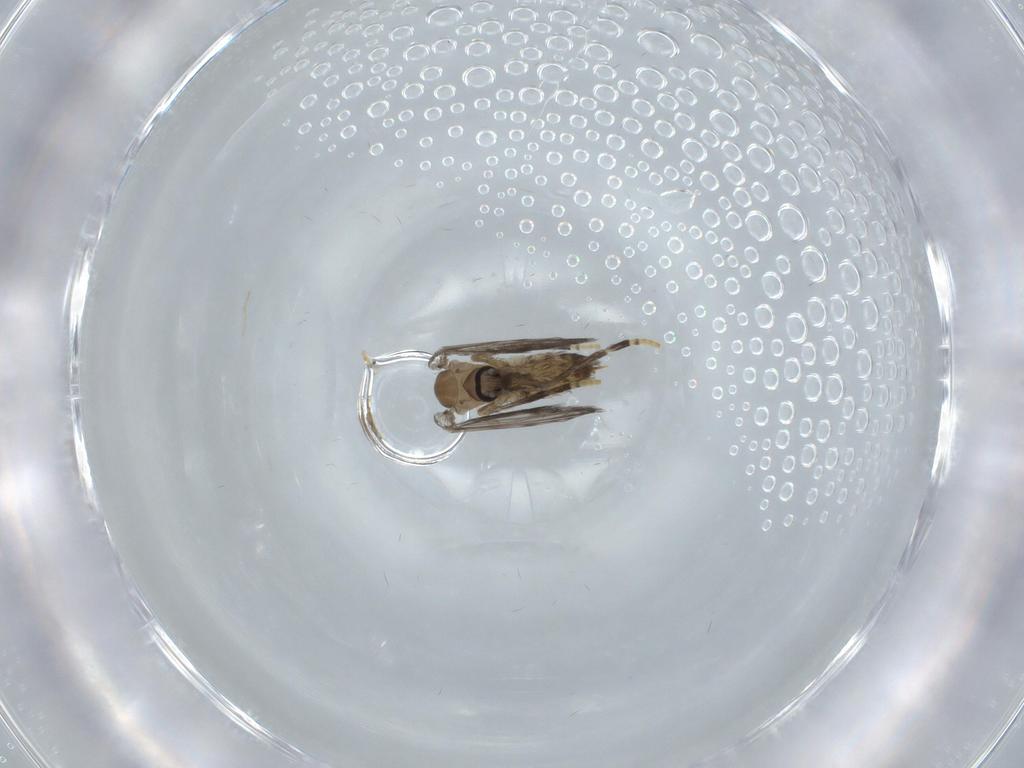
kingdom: Animalia
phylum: Arthropoda
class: Insecta
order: Diptera
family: Psychodidae
